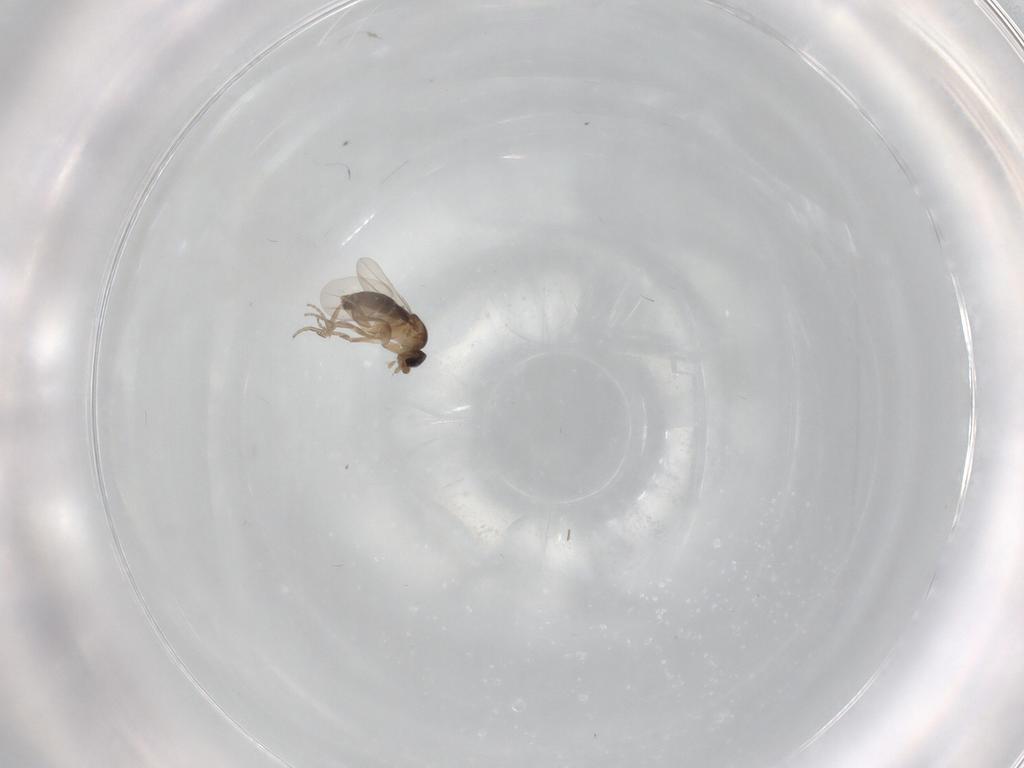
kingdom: Animalia
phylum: Arthropoda
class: Insecta
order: Diptera
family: Cecidomyiidae
